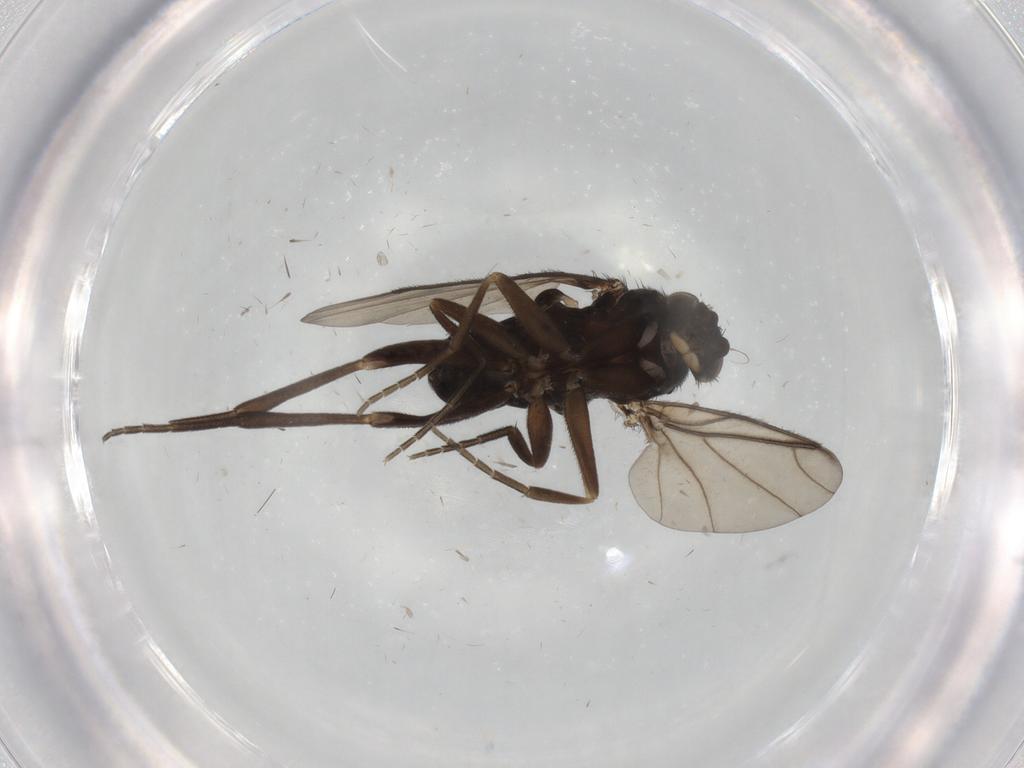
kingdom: Animalia
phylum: Arthropoda
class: Insecta
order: Diptera
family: Phoridae
